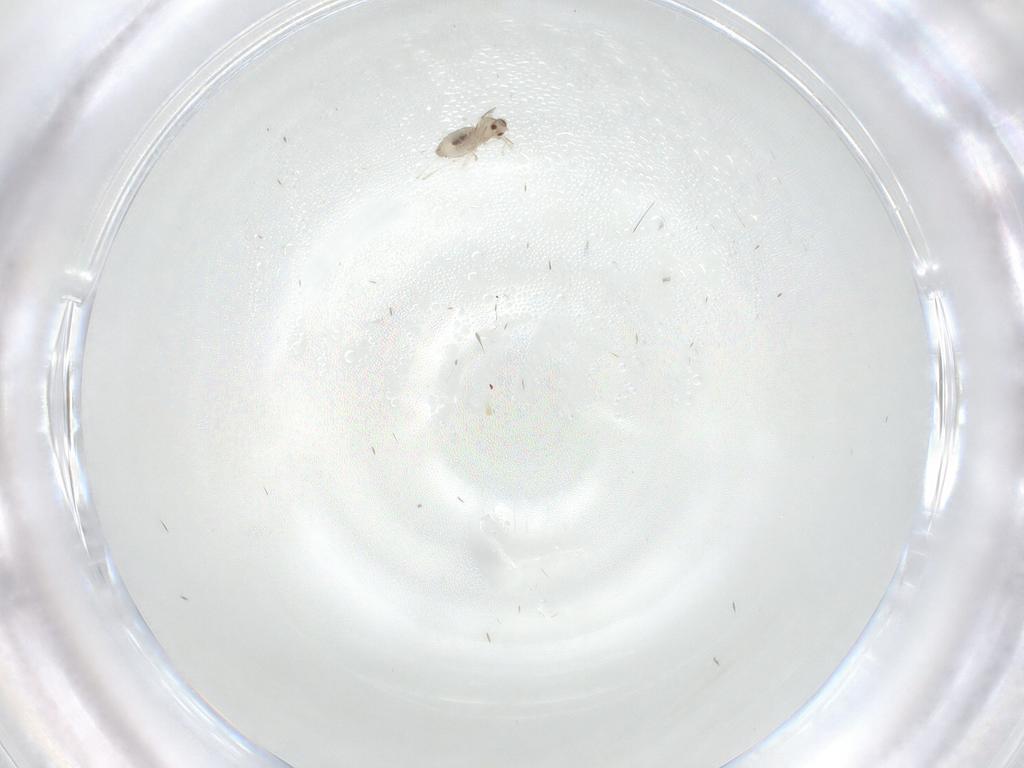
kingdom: Animalia
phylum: Arthropoda
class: Insecta
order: Diptera
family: Cecidomyiidae
